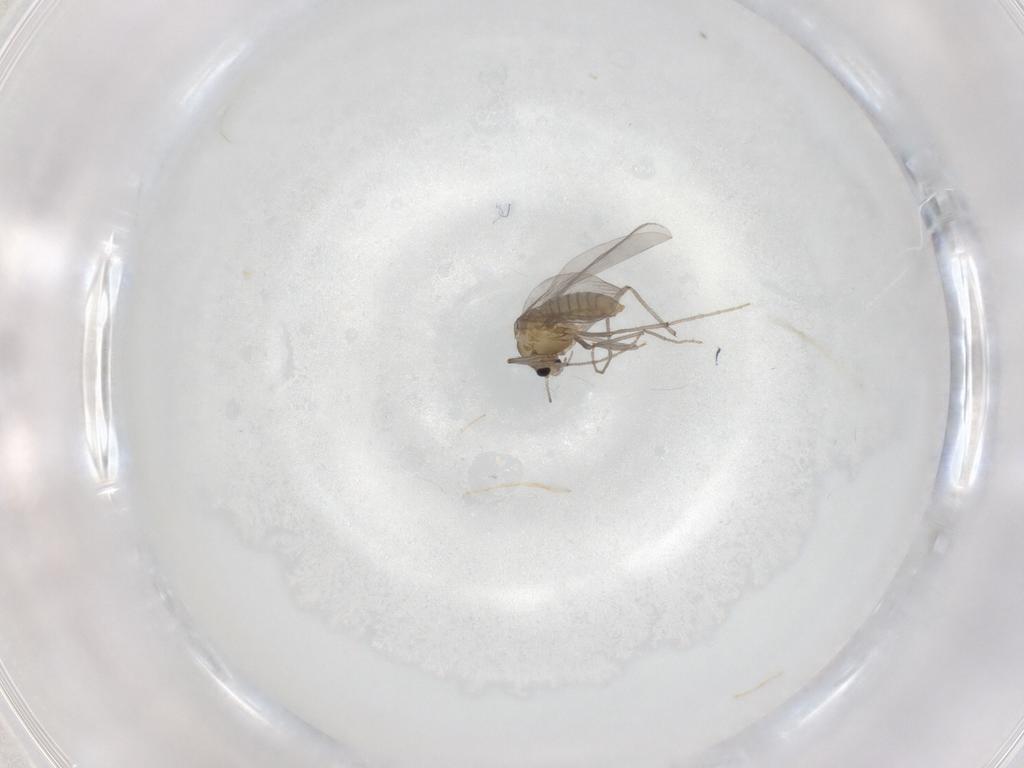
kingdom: Animalia
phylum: Arthropoda
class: Insecta
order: Diptera
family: Phoridae
